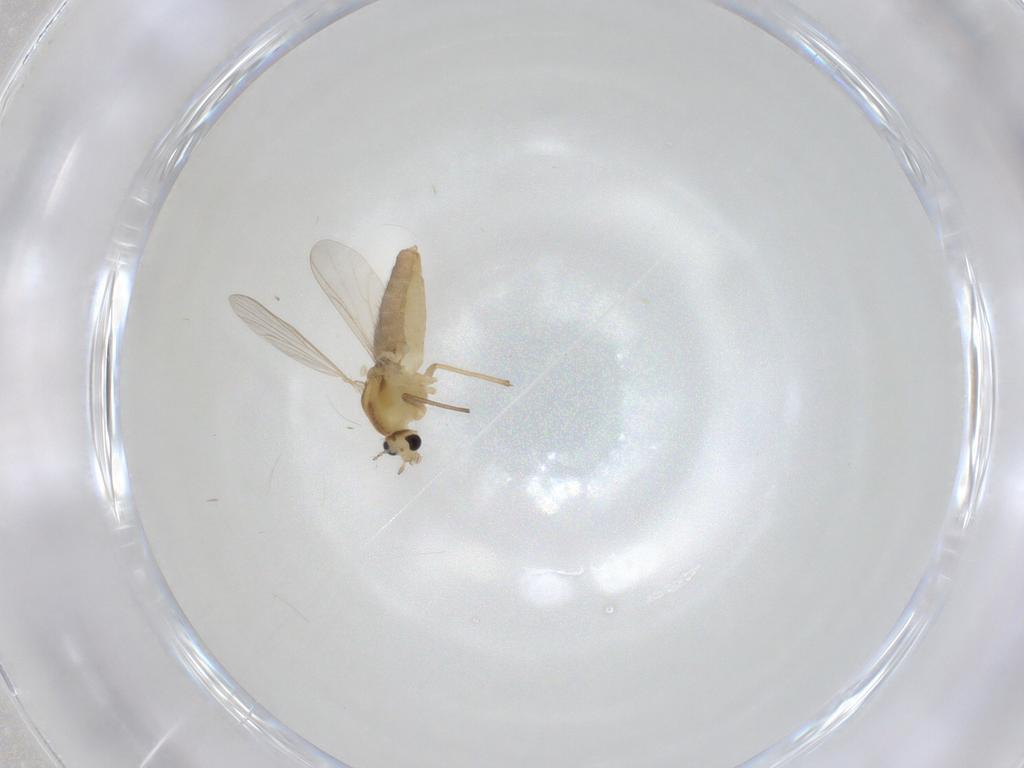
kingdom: Animalia
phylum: Arthropoda
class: Insecta
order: Diptera
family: Chironomidae
